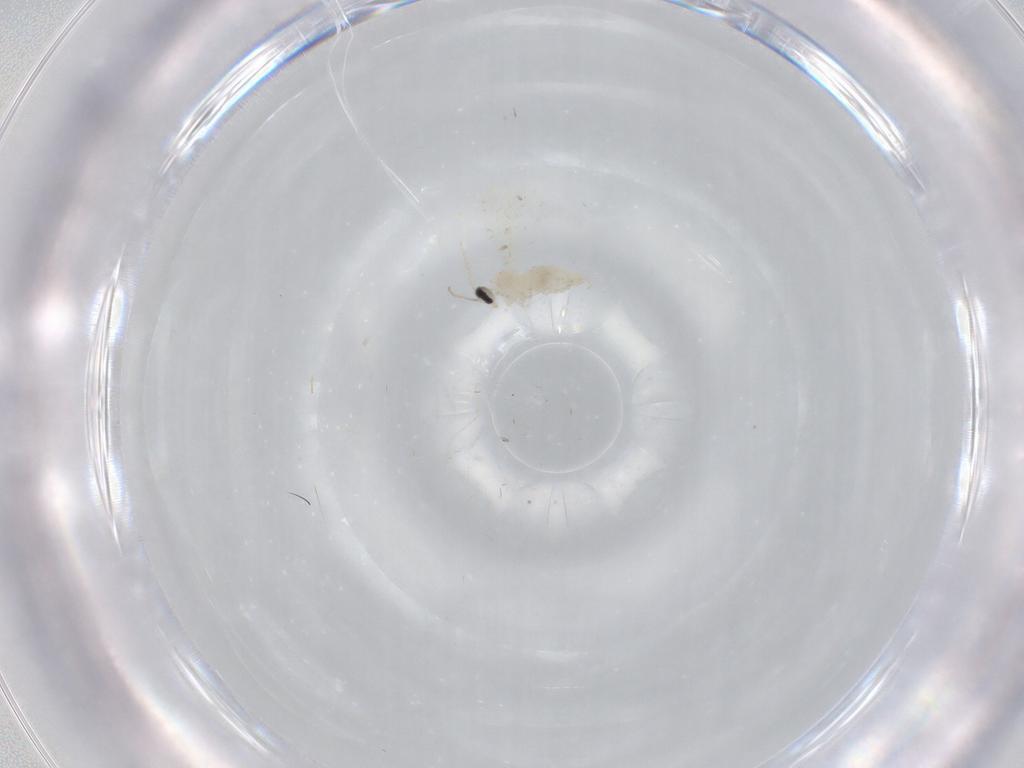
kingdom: Animalia
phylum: Arthropoda
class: Insecta
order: Diptera
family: Cecidomyiidae
